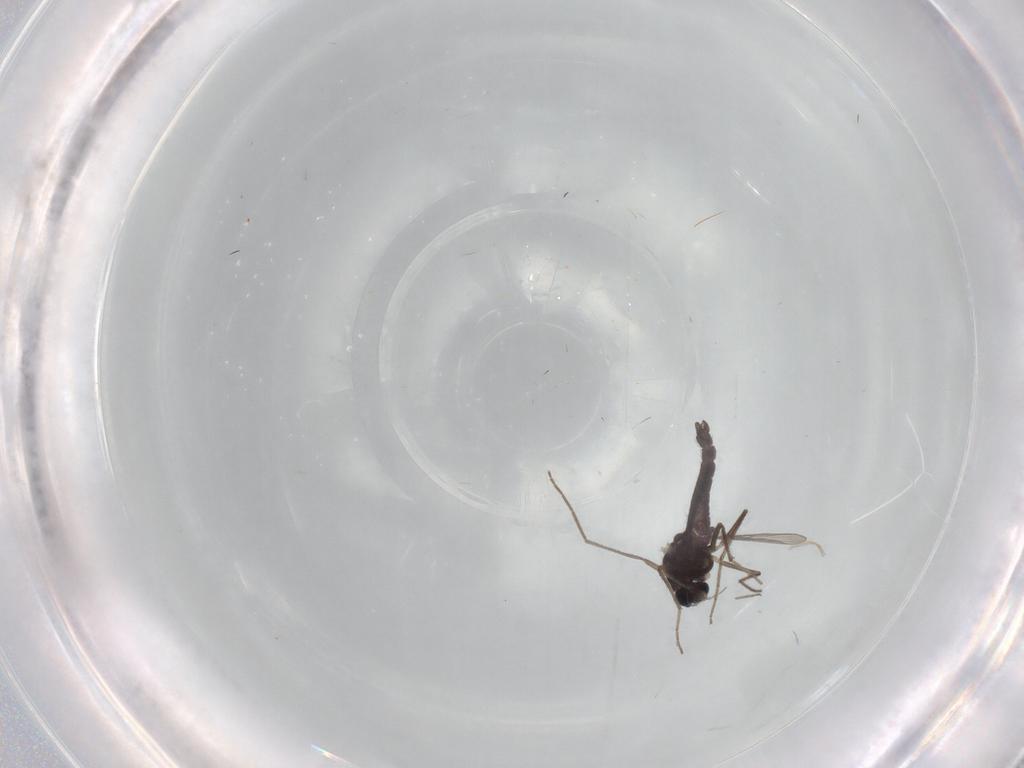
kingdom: Animalia
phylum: Arthropoda
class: Insecta
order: Diptera
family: Chironomidae
